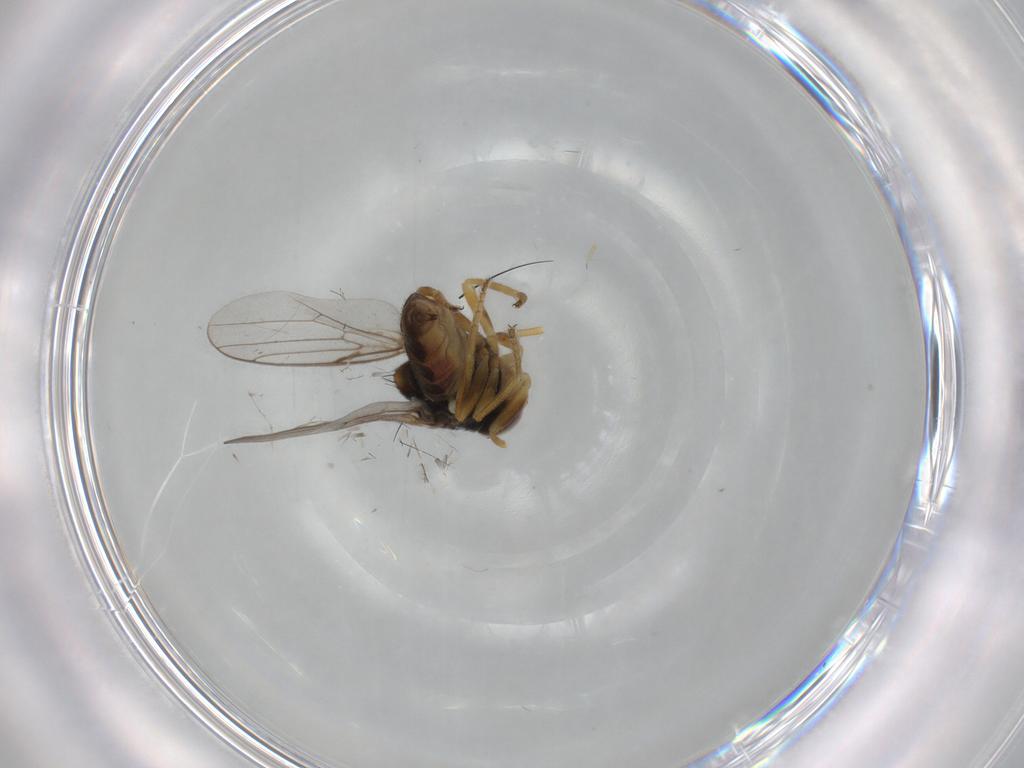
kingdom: Animalia
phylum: Arthropoda
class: Insecta
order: Diptera
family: Chloropidae
